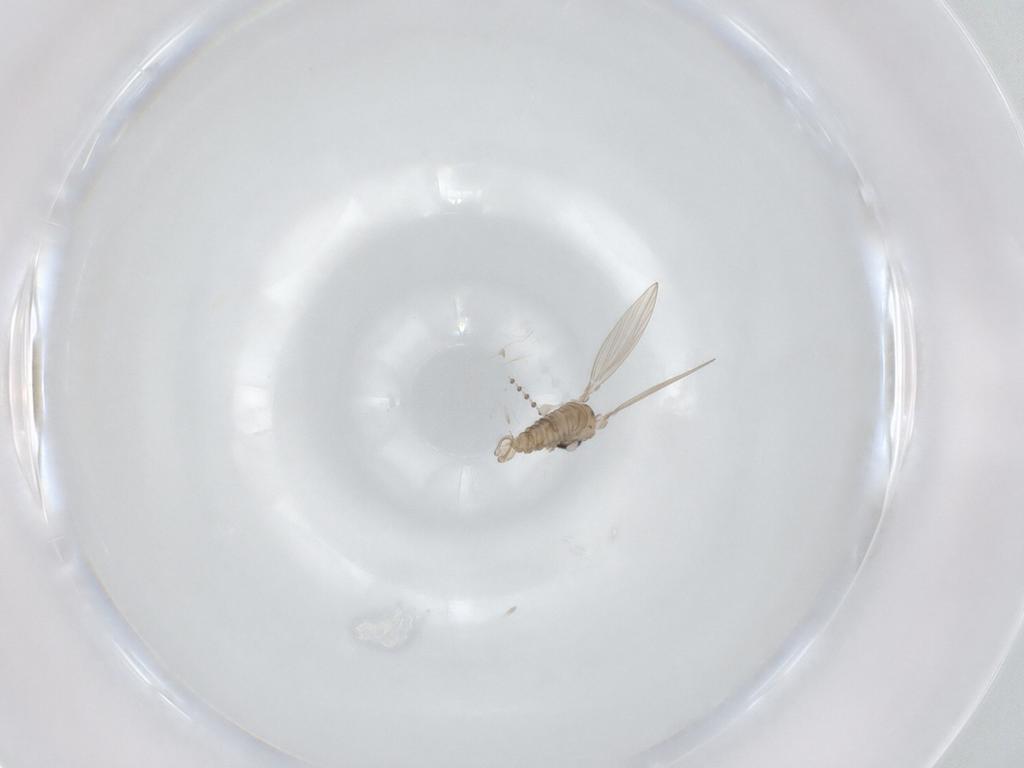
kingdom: Animalia
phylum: Arthropoda
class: Insecta
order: Diptera
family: Psychodidae
